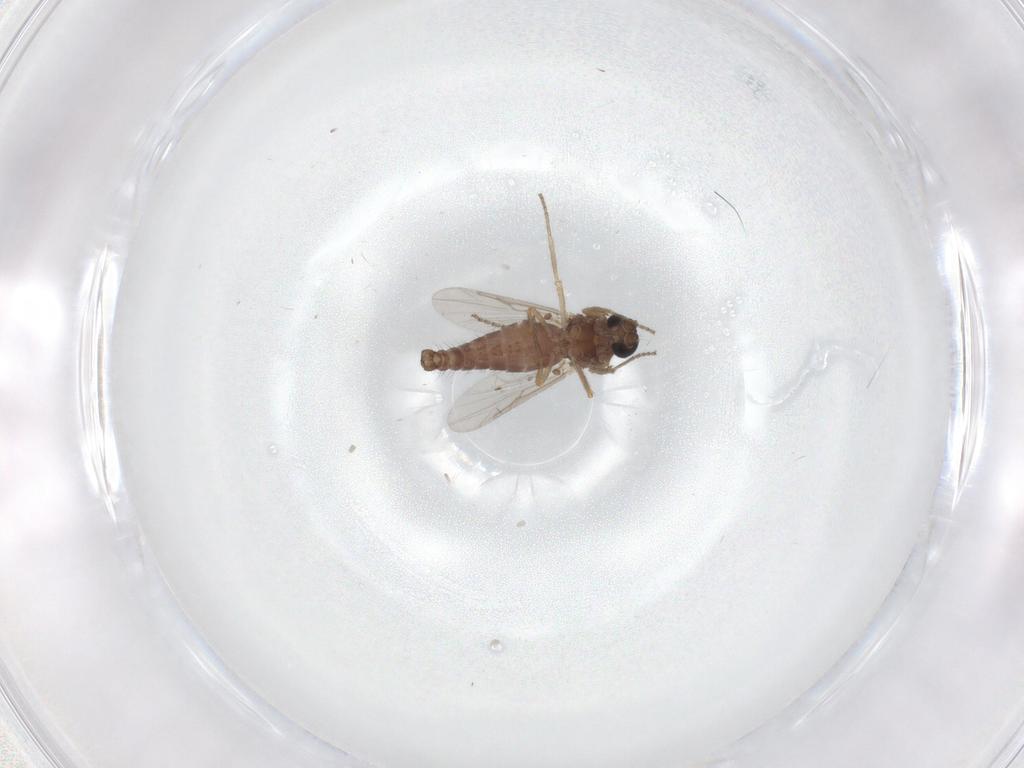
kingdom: Animalia
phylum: Arthropoda
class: Insecta
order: Diptera
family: Ceratopogonidae
